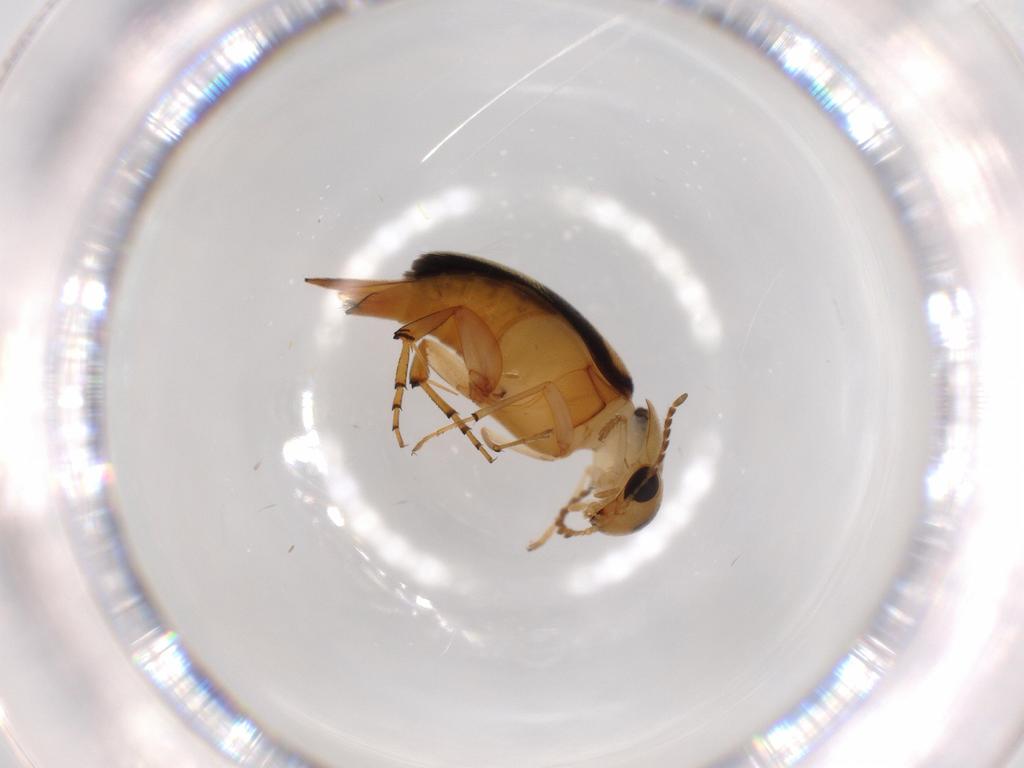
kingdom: Animalia
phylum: Arthropoda
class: Insecta
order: Coleoptera
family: Mordellidae
